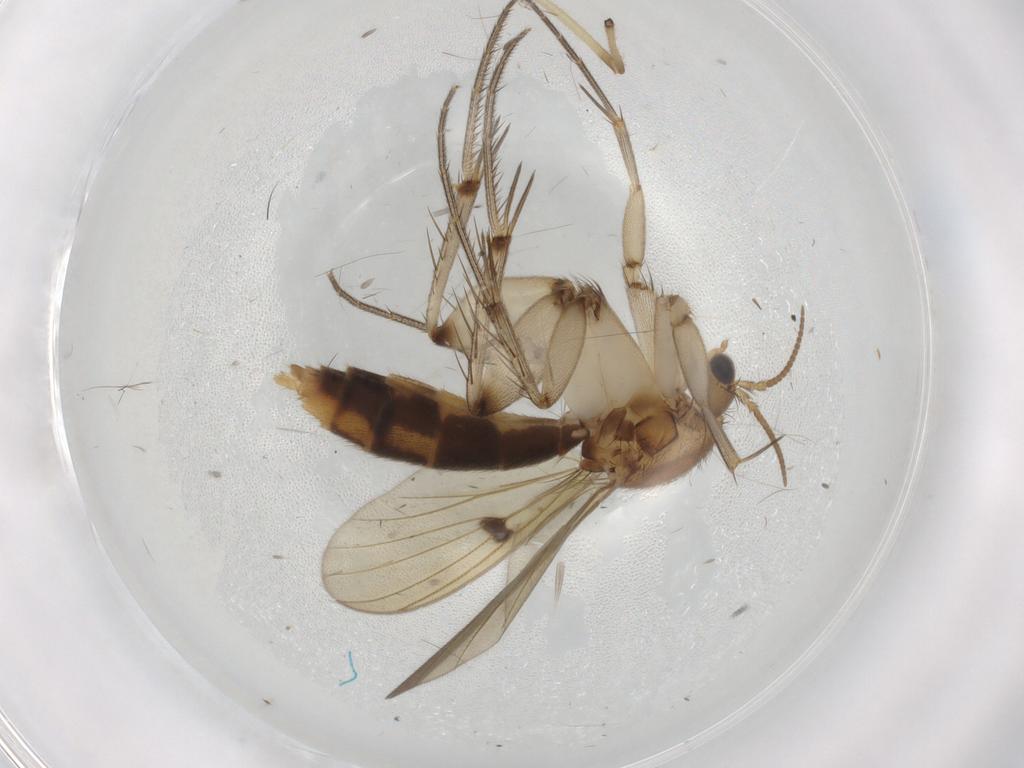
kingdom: Animalia
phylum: Arthropoda
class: Insecta
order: Diptera
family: Mycetophilidae
